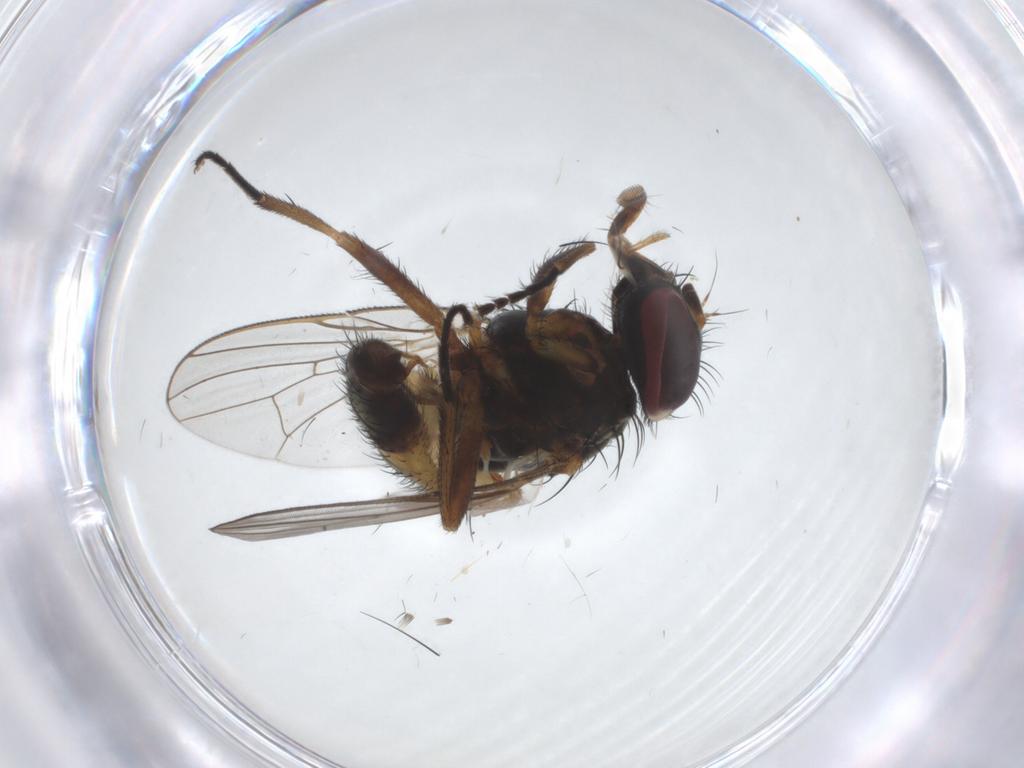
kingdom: Animalia
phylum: Arthropoda
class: Insecta
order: Diptera
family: Fannia
